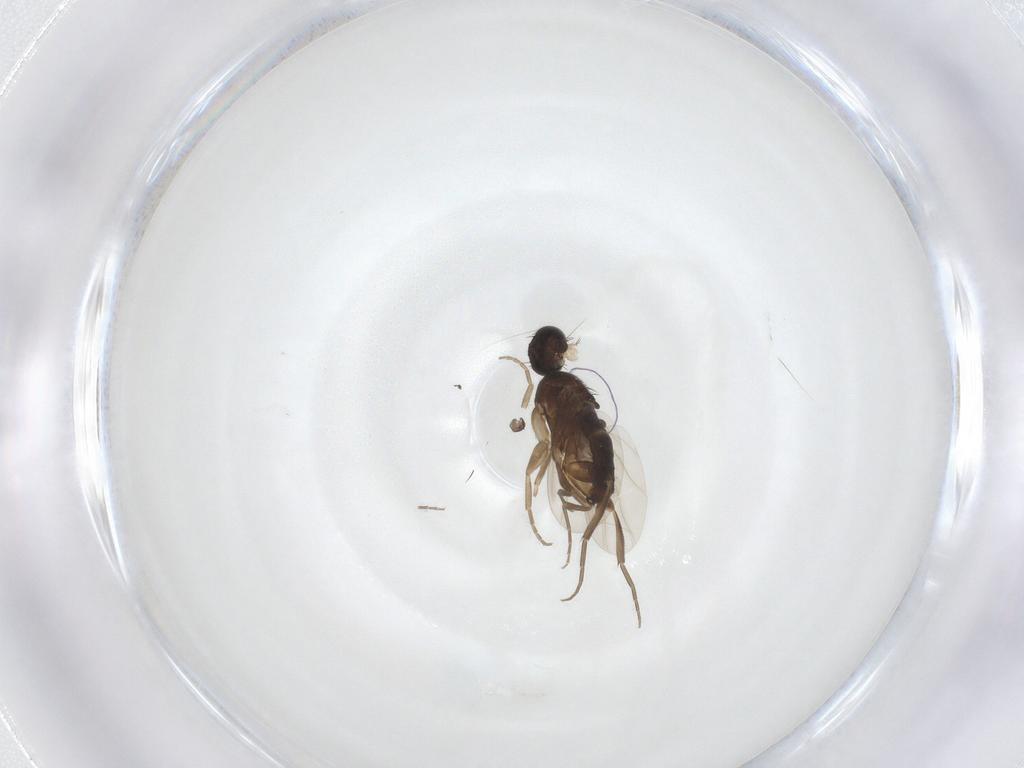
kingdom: Animalia
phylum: Arthropoda
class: Insecta
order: Diptera
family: Phoridae
